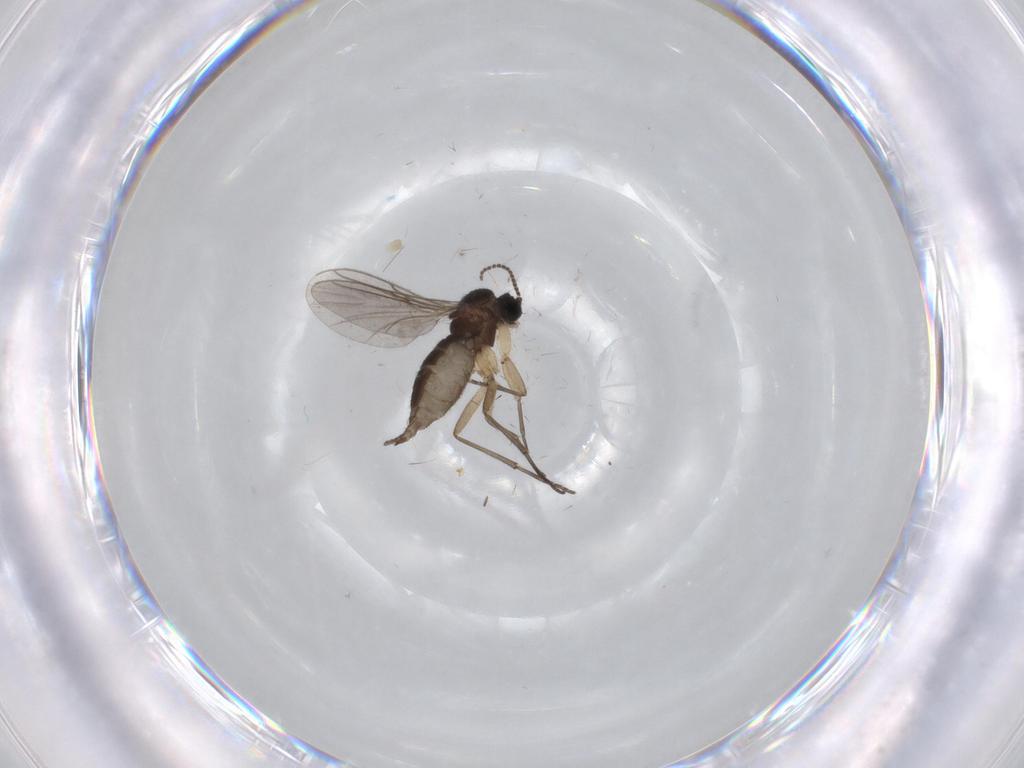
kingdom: Animalia
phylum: Arthropoda
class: Insecta
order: Diptera
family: Sciaridae
